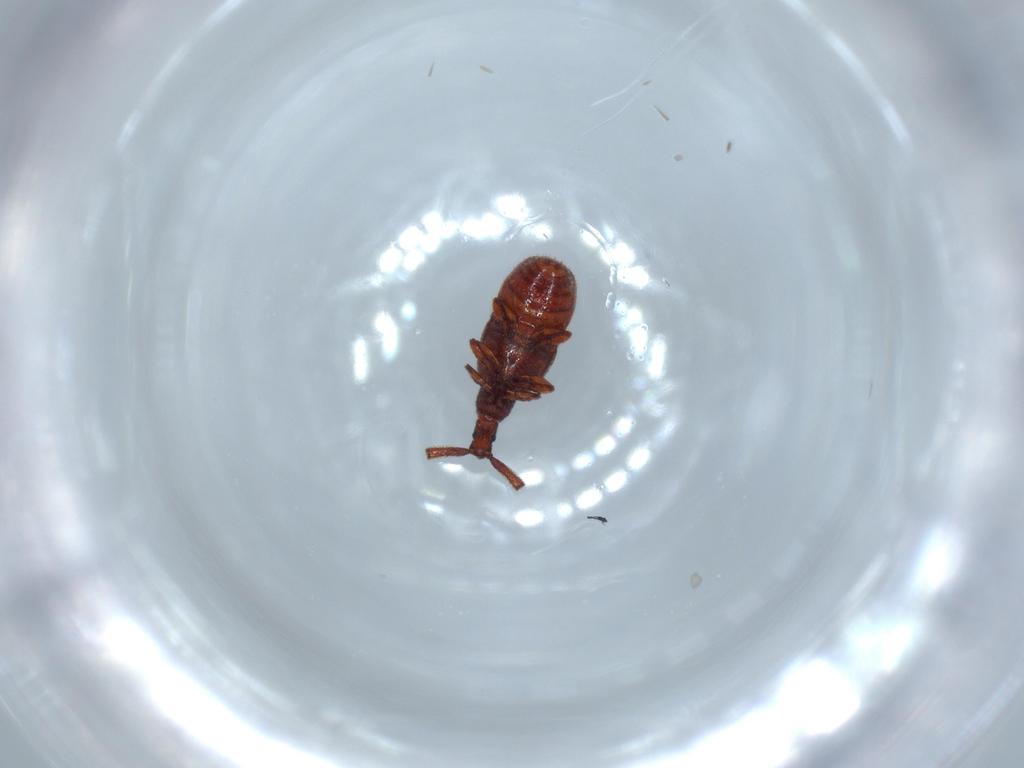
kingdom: Animalia
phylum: Arthropoda
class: Insecta
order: Coleoptera
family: Staphylinidae
